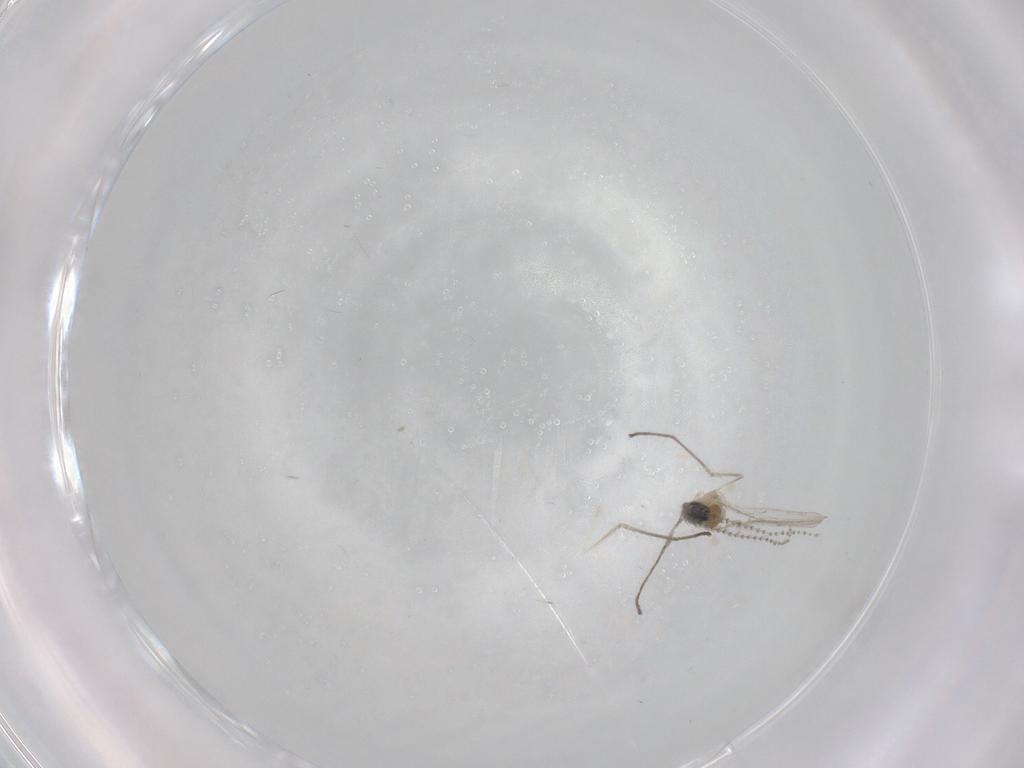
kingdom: Animalia
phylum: Arthropoda
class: Insecta
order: Diptera
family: Cecidomyiidae
